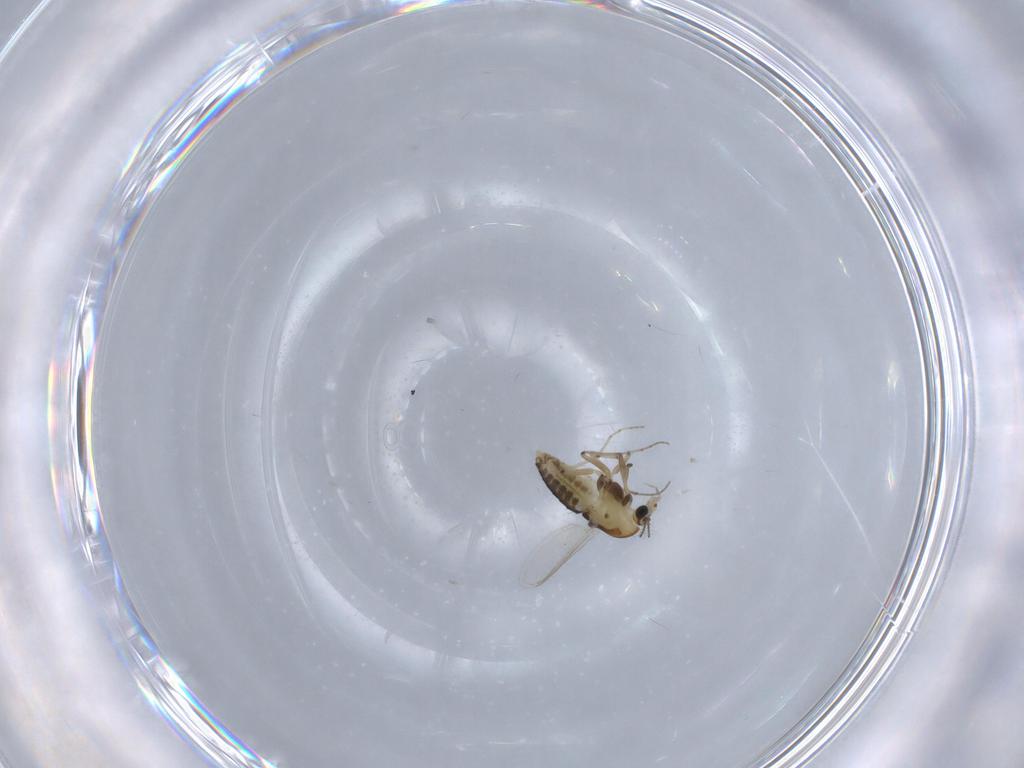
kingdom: Animalia
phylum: Arthropoda
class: Insecta
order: Diptera
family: Chironomidae
